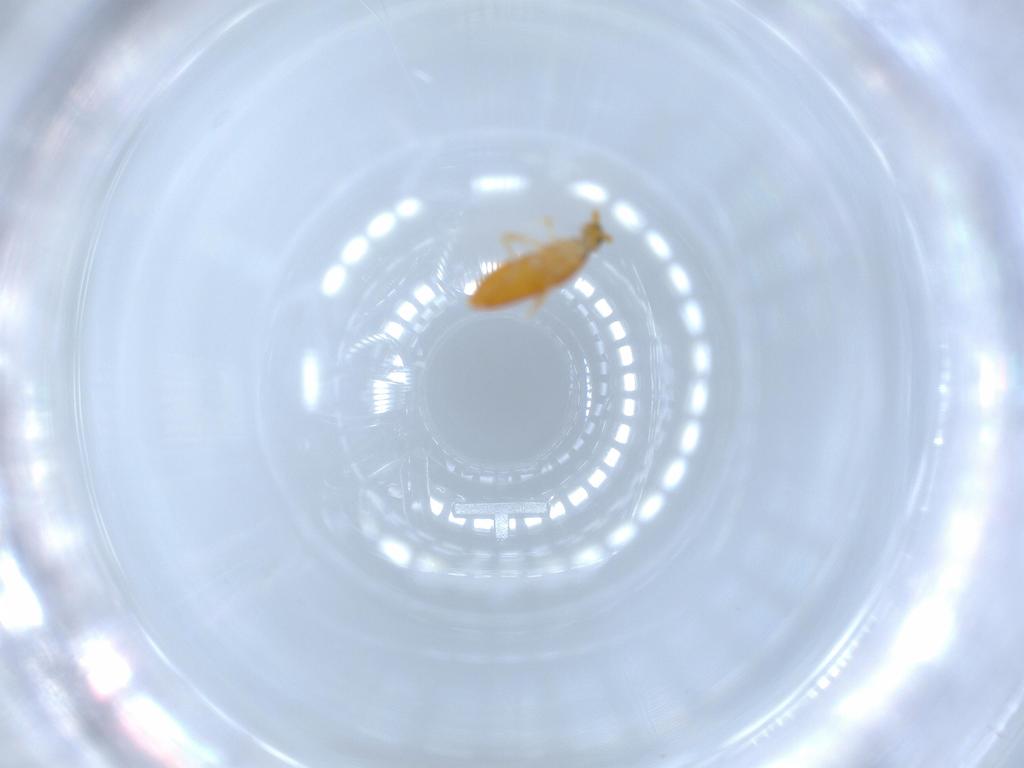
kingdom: Animalia
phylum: Arthropoda
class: Collembola
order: Entomobryomorpha
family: Entomobryidae
